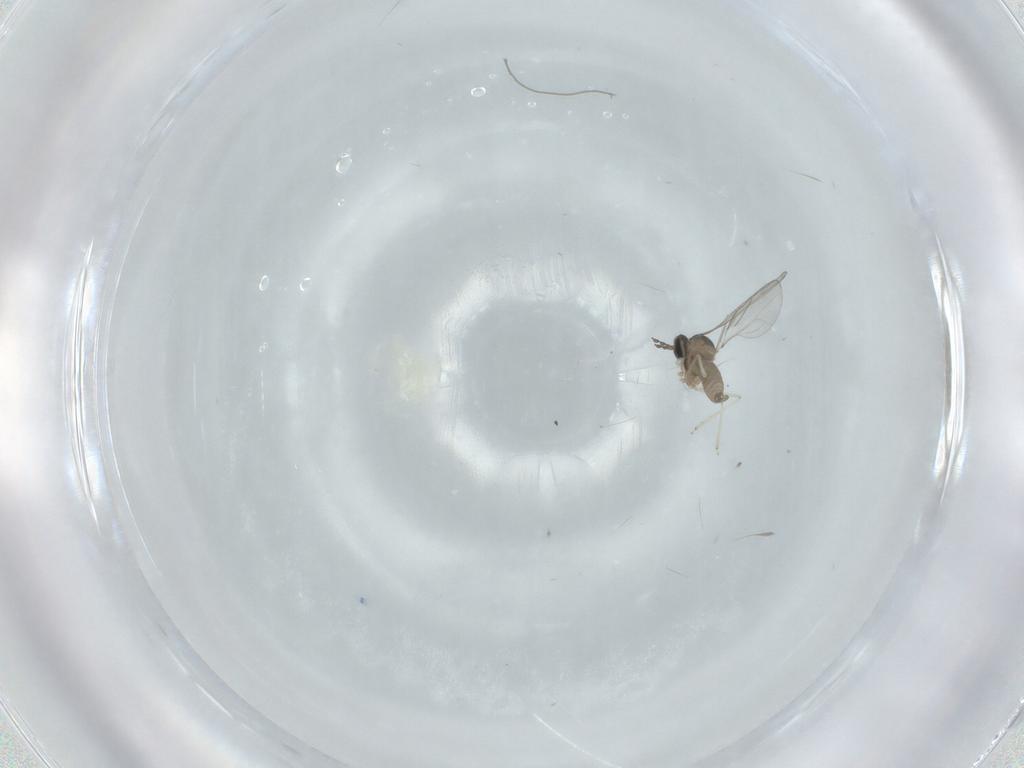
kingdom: Animalia
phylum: Arthropoda
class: Insecta
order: Diptera
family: Cecidomyiidae
